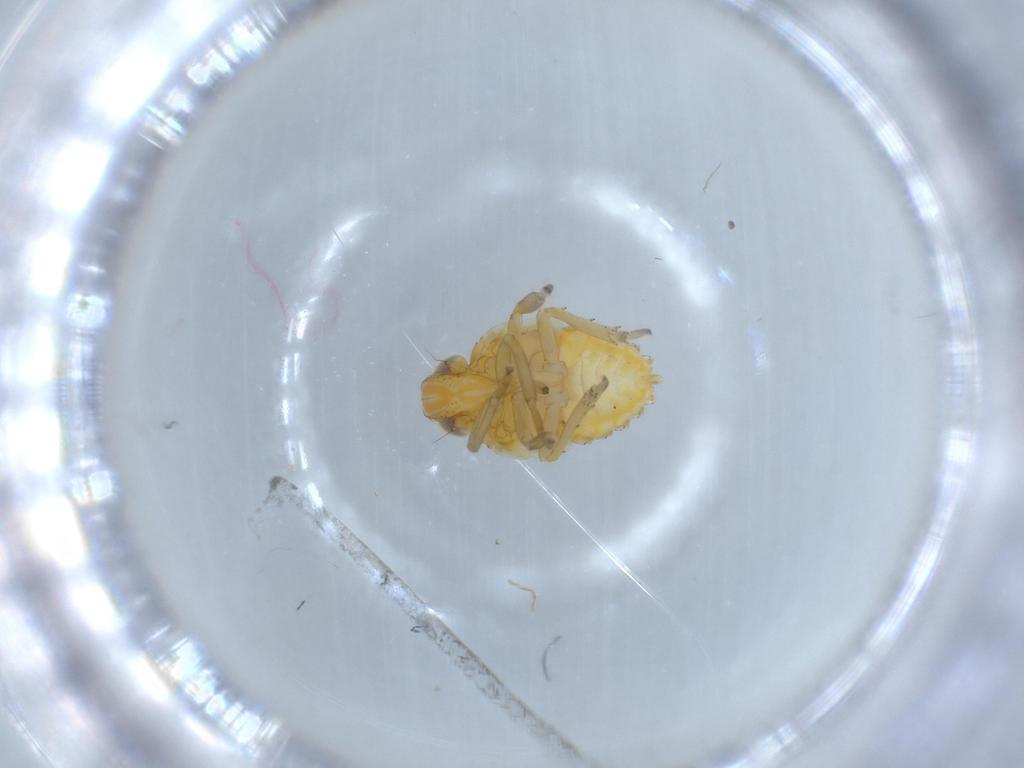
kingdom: Animalia
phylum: Arthropoda
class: Insecta
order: Hemiptera
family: Issidae
